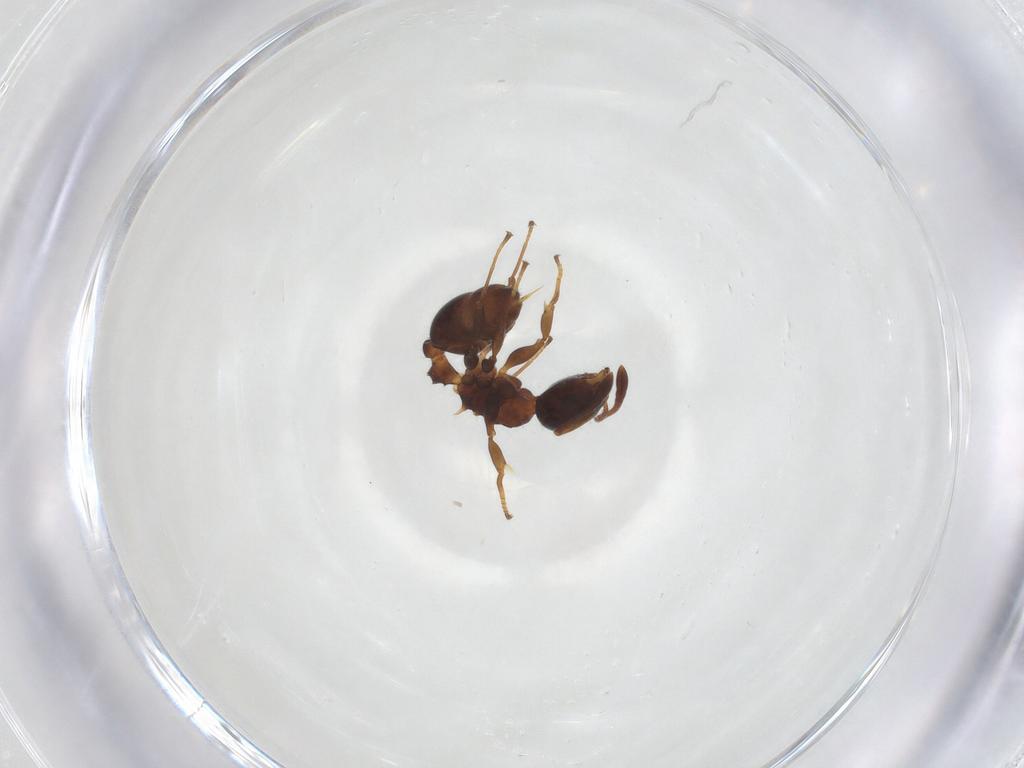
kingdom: Animalia
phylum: Arthropoda
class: Insecta
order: Hymenoptera
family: Formicidae
